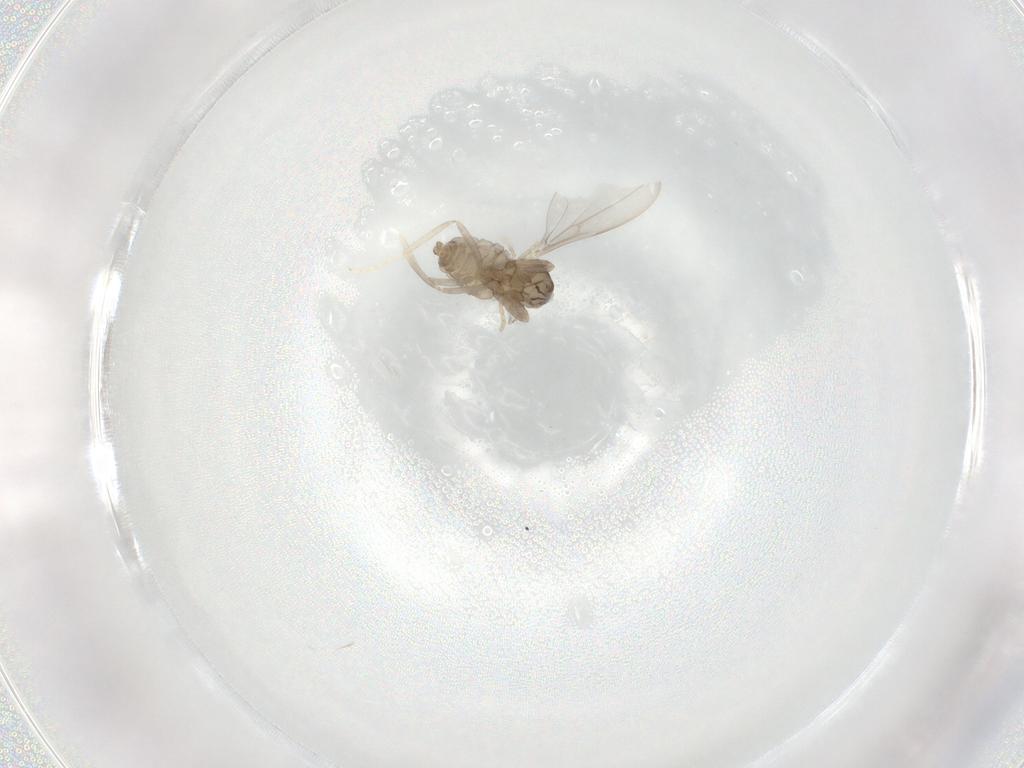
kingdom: Animalia
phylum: Arthropoda
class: Insecta
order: Diptera
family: Cecidomyiidae
